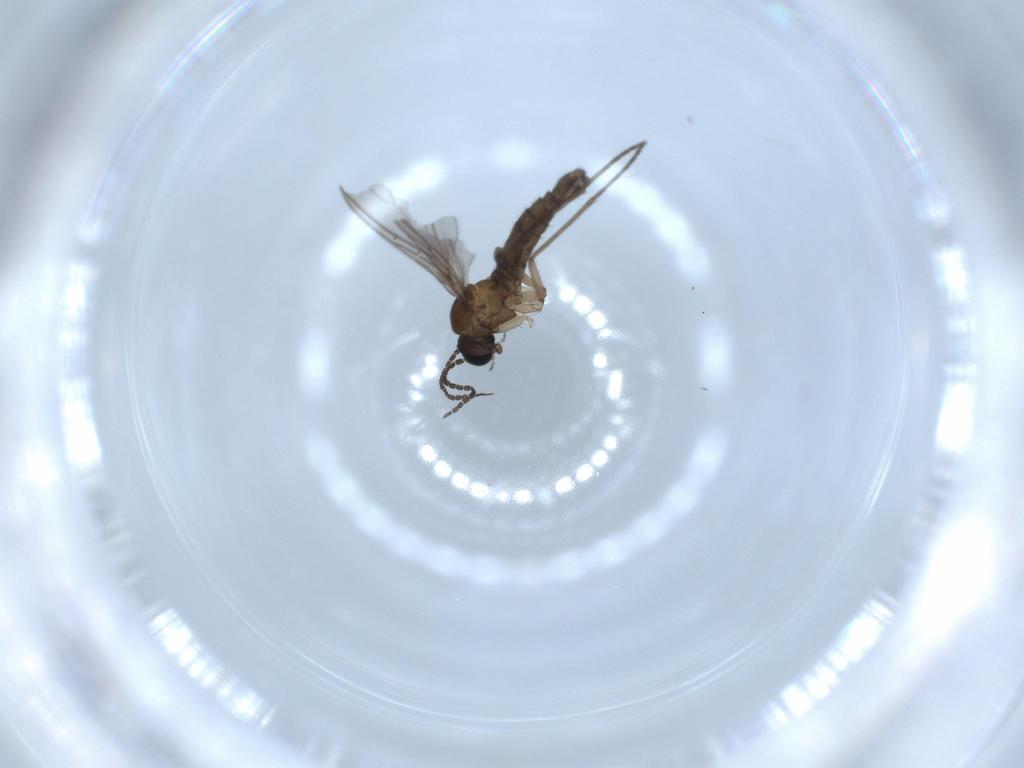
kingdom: Animalia
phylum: Arthropoda
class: Insecta
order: Diptera
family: Sciaridae
